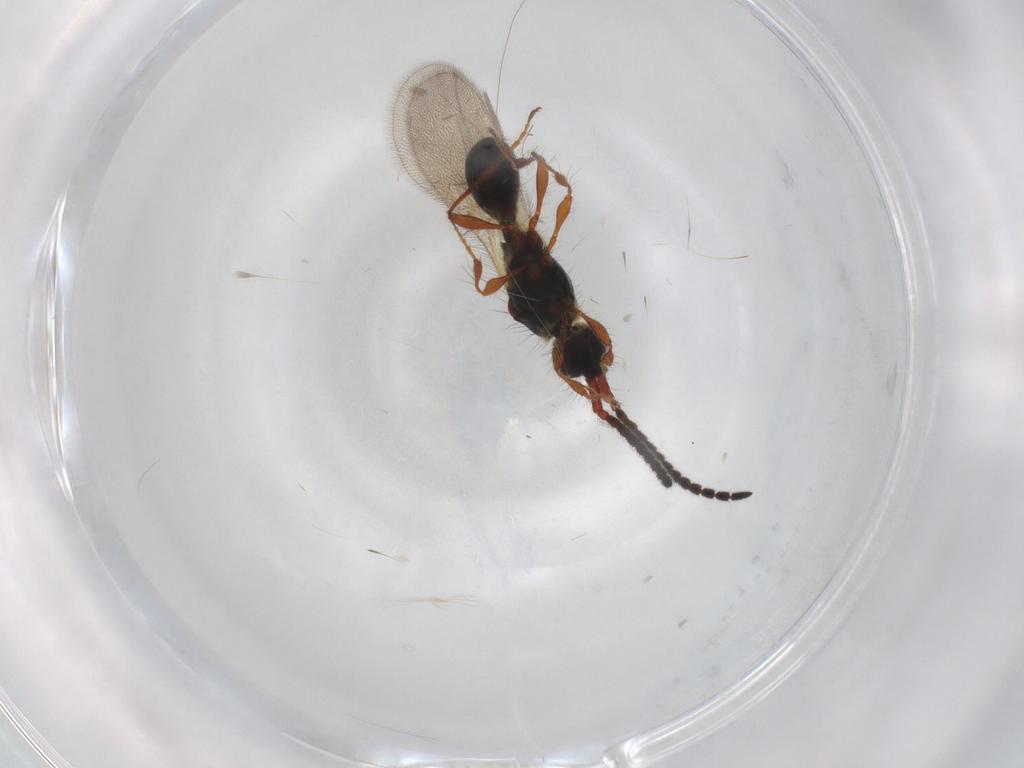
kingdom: Animalia
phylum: Arthropoda
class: Insecta
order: Hymenoptera
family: Diapriidae
